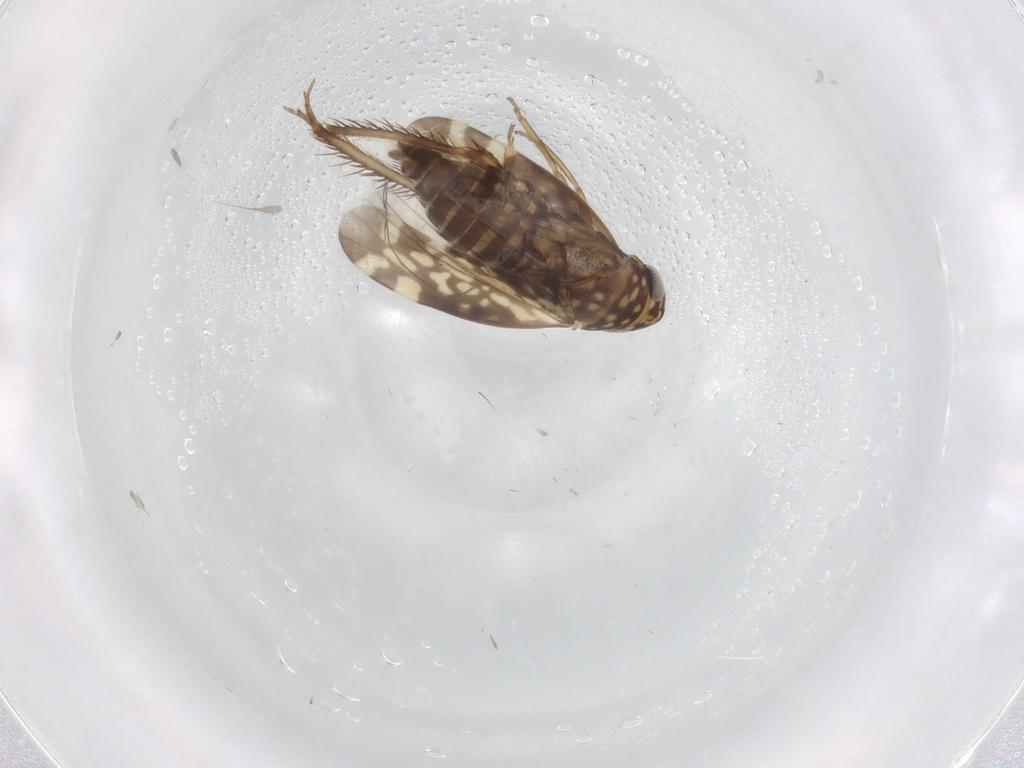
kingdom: Animalia
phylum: Arthropoda
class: Insecta
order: Hemiptera
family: Cicadellidae
